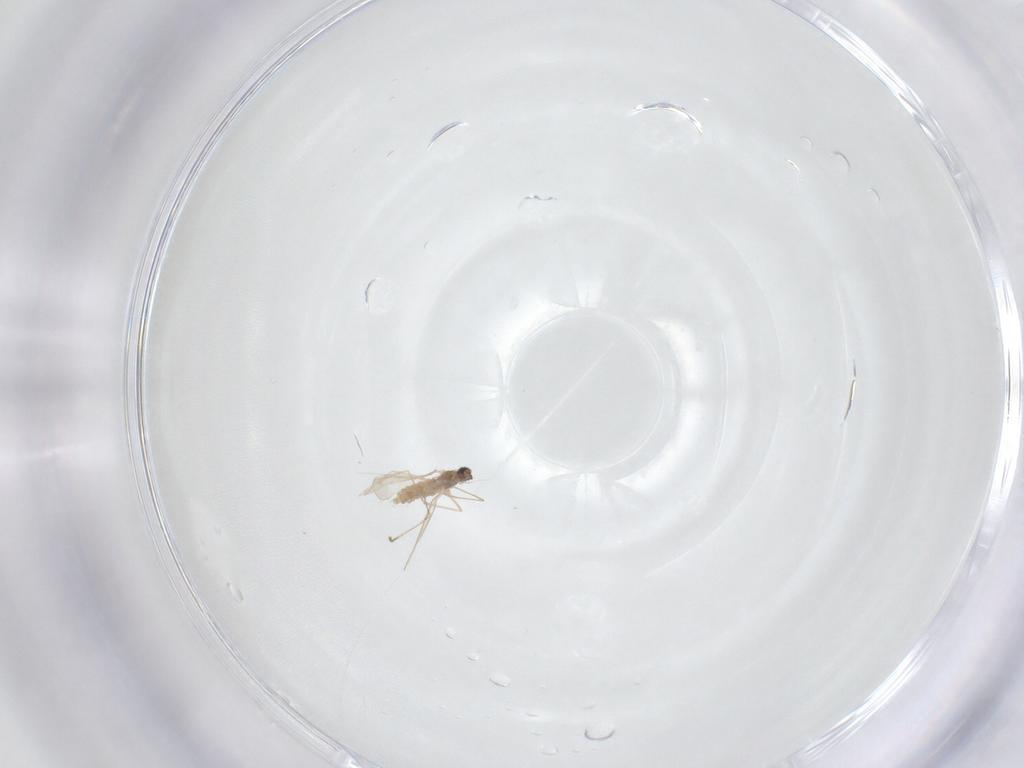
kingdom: Animalia
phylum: Arthropoda
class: Insecta
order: Diptera
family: Cecidomyiidae
